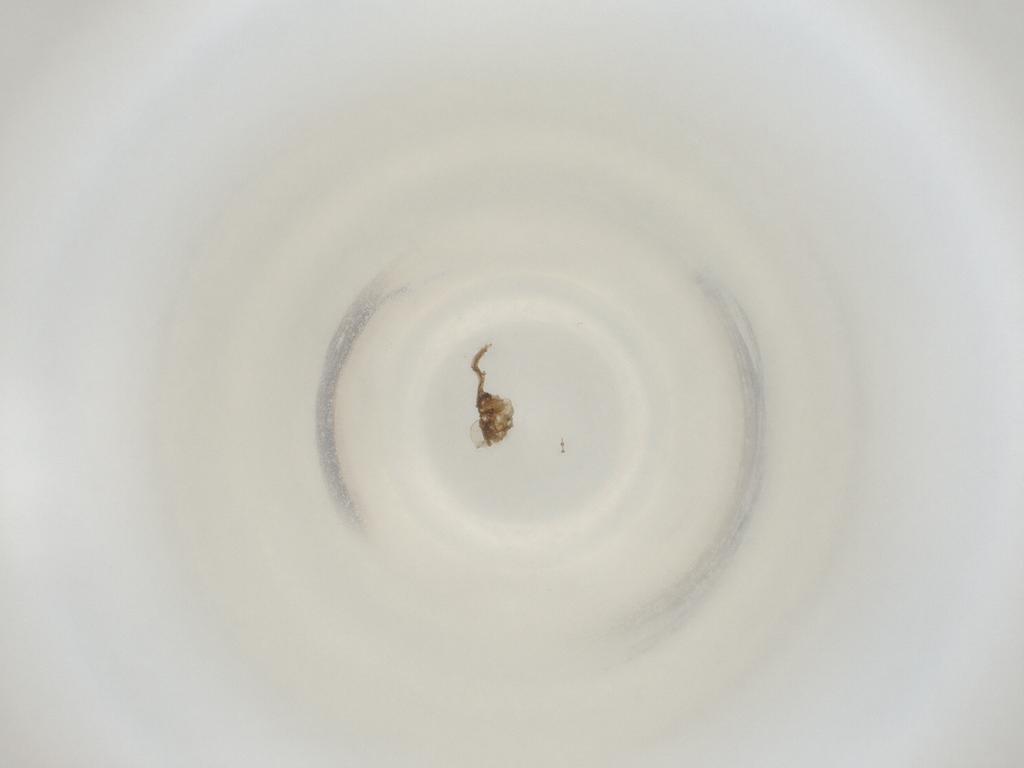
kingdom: Animalia
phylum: Arthropoda
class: Insecta
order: Diptera
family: Cecidomyiidae
